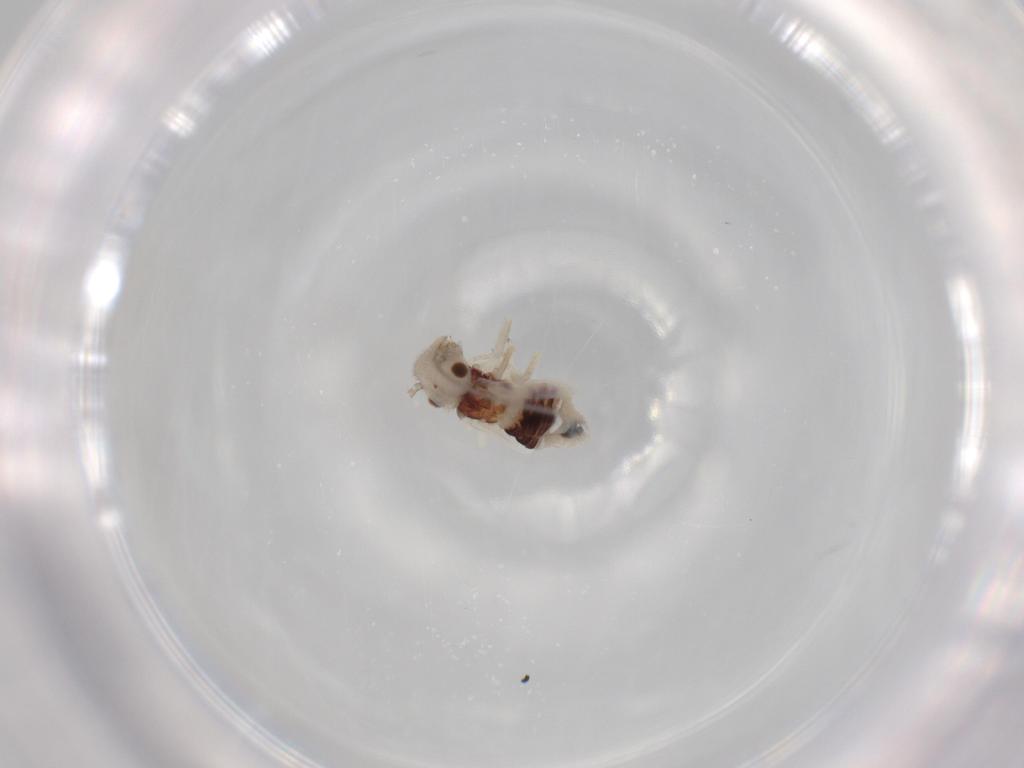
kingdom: Animalia
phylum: Arthropoda
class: Insecta
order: Psocodea
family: Caeciliusidae
